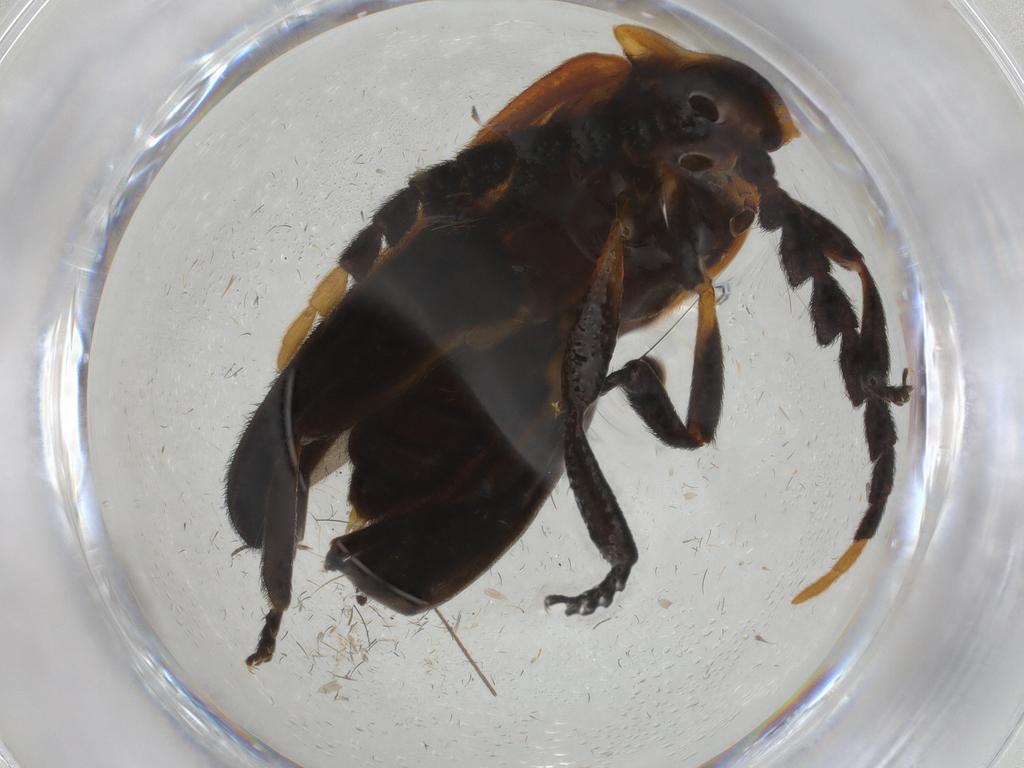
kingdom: Animalia
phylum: Arthropoda
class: Insecta
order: Coleoptera
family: Lycidae
